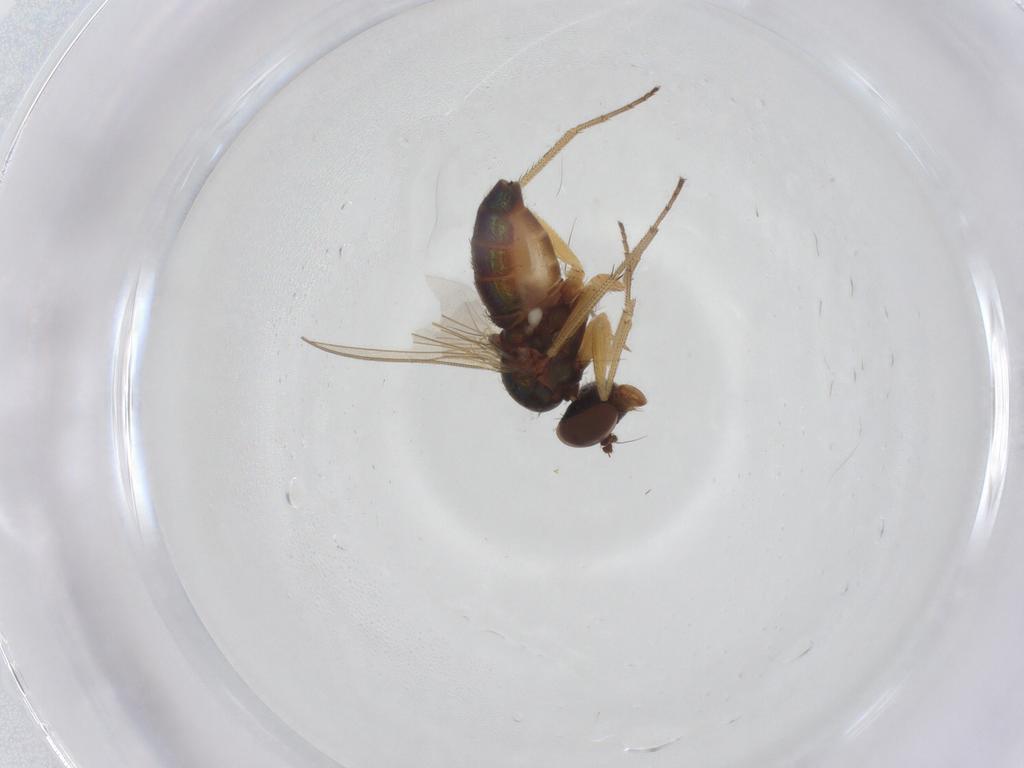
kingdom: Animalia
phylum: Arthropoda
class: Insecta
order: Diptera
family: Dolichopodidae
